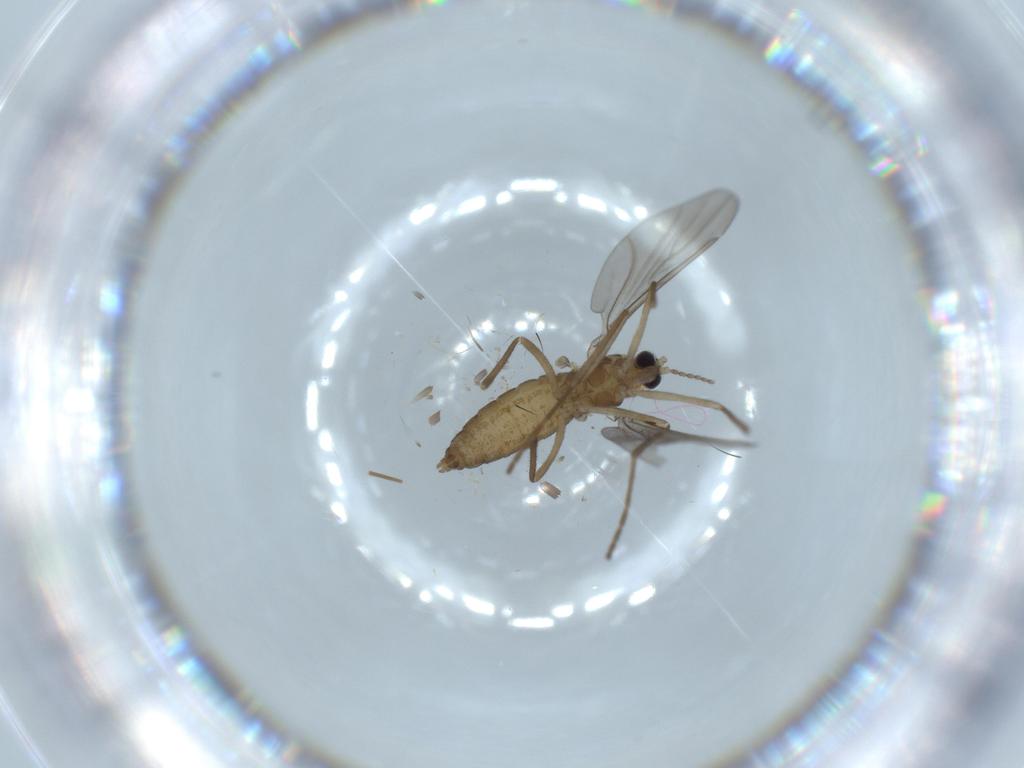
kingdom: Animalia
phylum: Arthropoda
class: Insecta
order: Diptera
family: Cecidomyiidae
